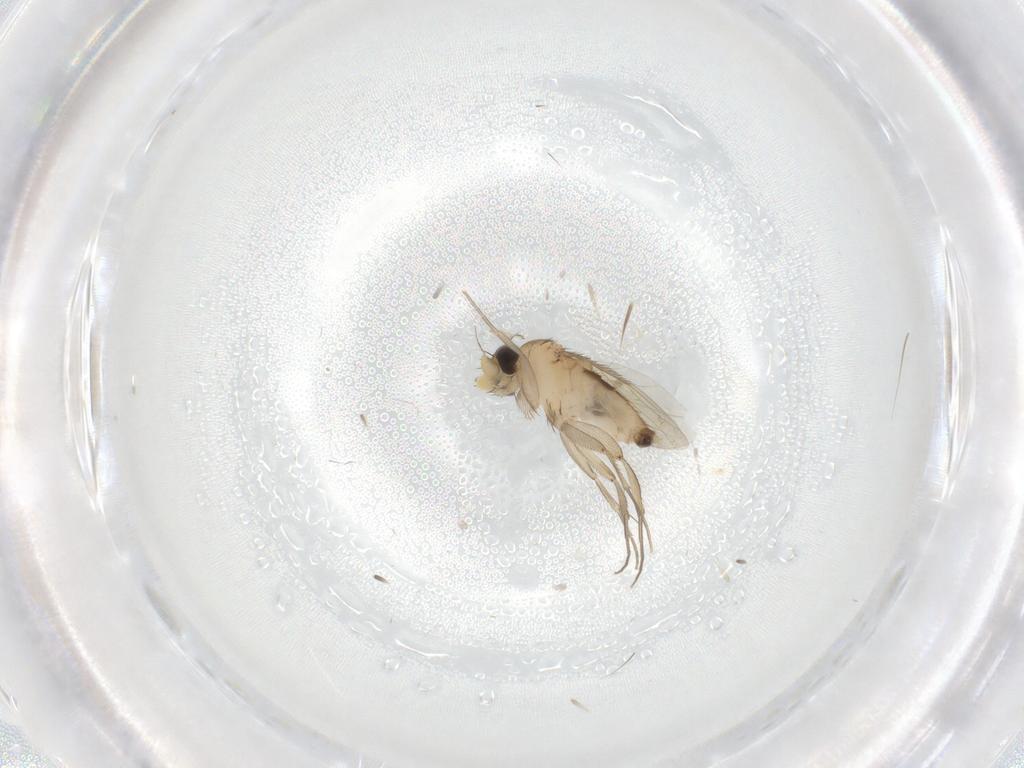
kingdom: Animalia
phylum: Arthropoda
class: Insecta
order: Diptera
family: Phoridae
